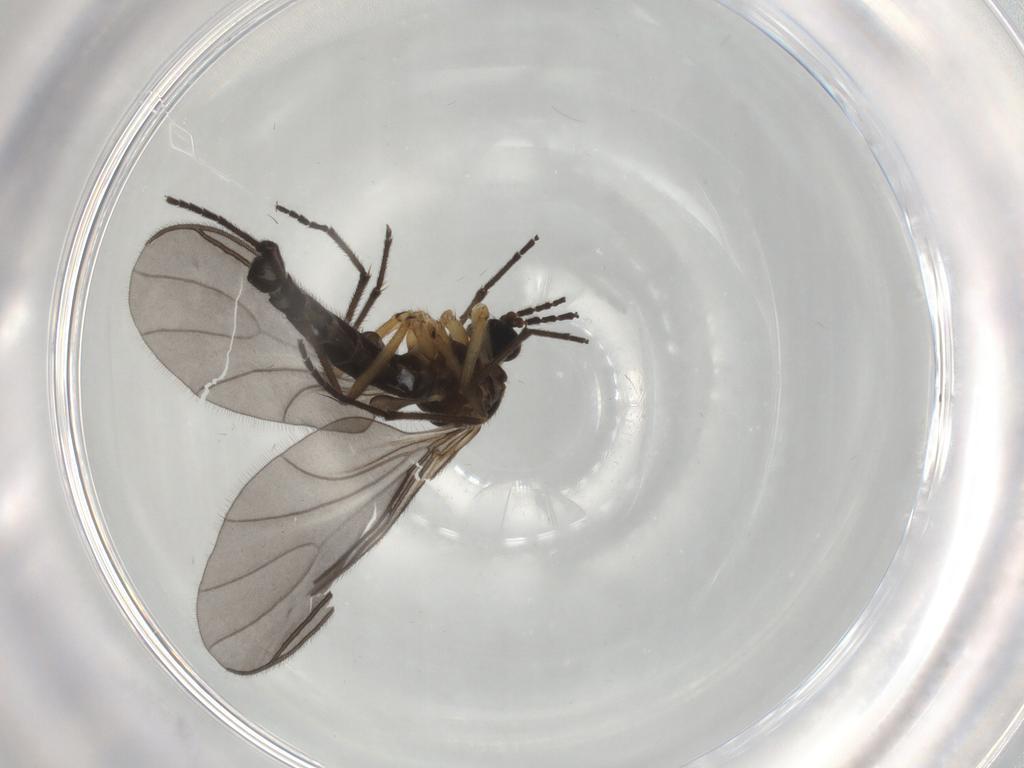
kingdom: Animalia
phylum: Arthropoda
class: Insecta
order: Diptera
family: Sciaridae
